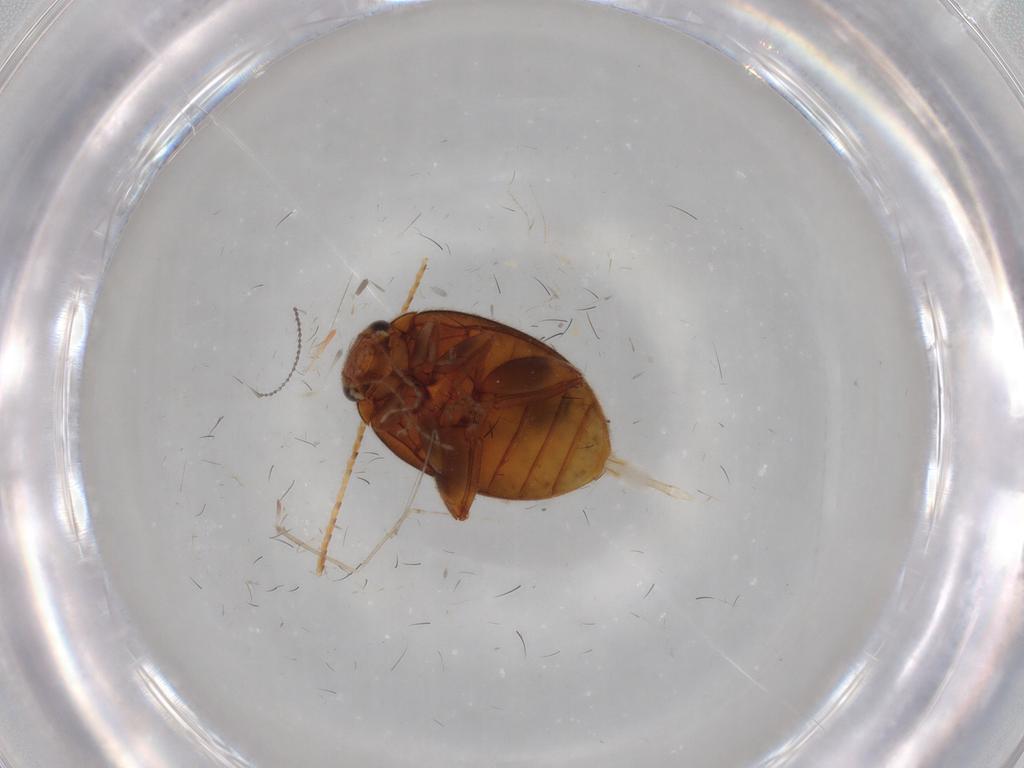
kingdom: Animalia
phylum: Arthropoda
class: Insecta
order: Coleoptera
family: Scirtidae
